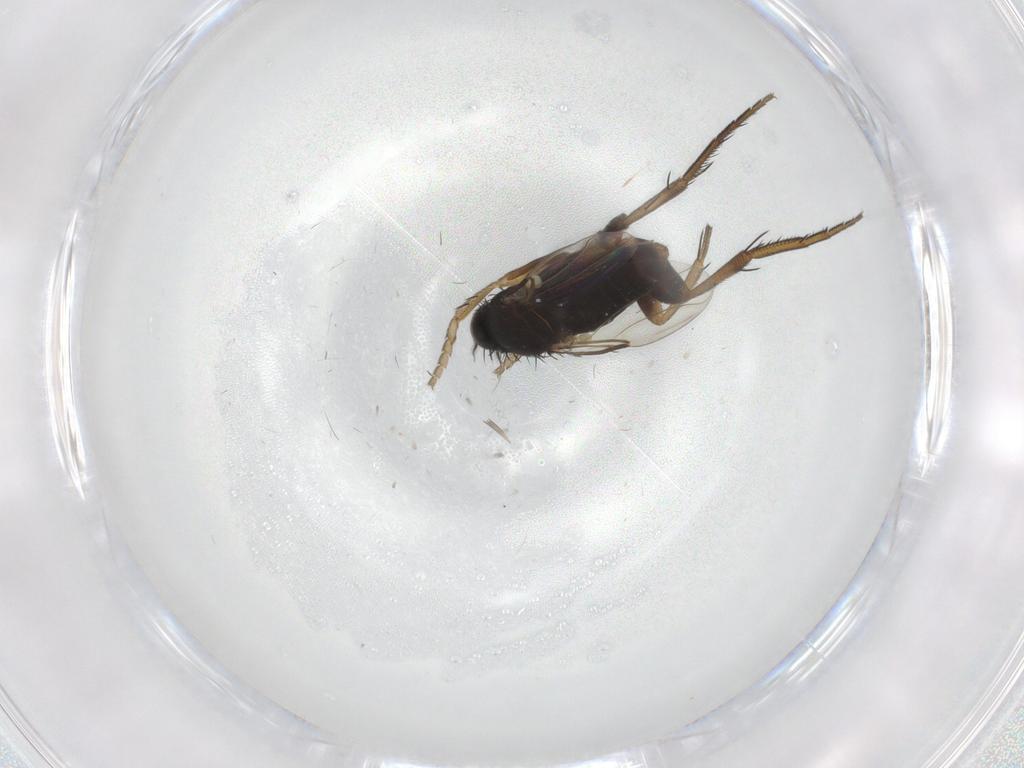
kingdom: Animalia
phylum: Arthropoda
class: Insecta
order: Diptera
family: Phoridae
